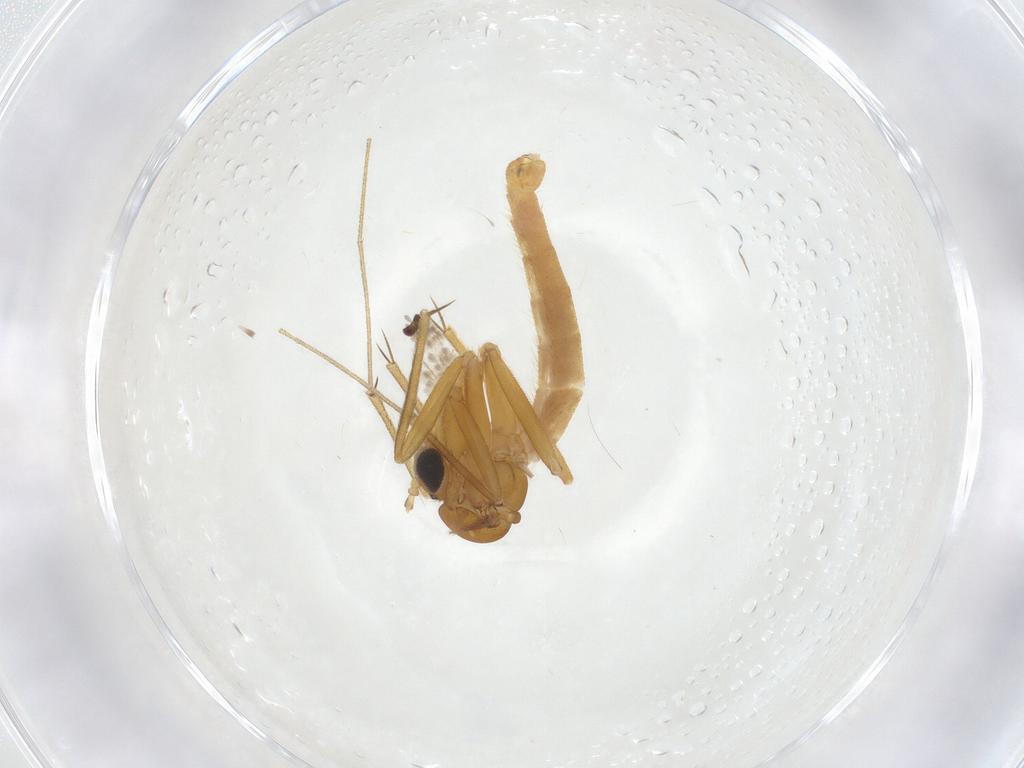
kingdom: Animalia
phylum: Arthropoda
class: Insecta
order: Diptera
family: Mycetophilidae
